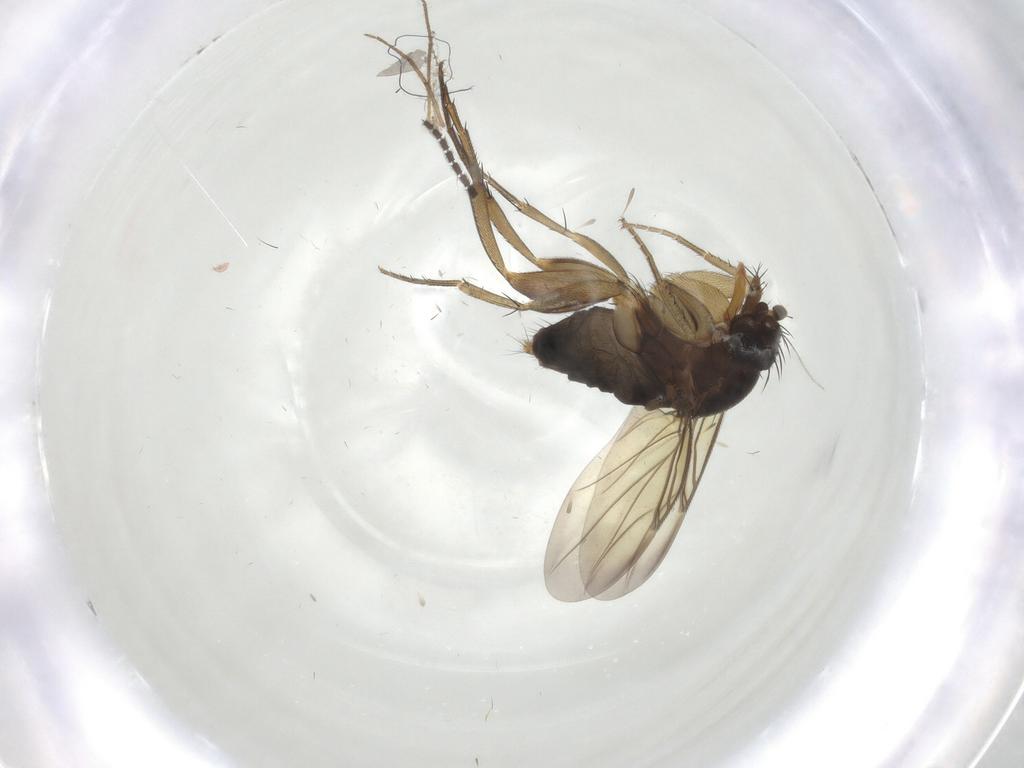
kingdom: Animalia
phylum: Arthropoda
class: Insecta
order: Diptera
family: Sciaridae
